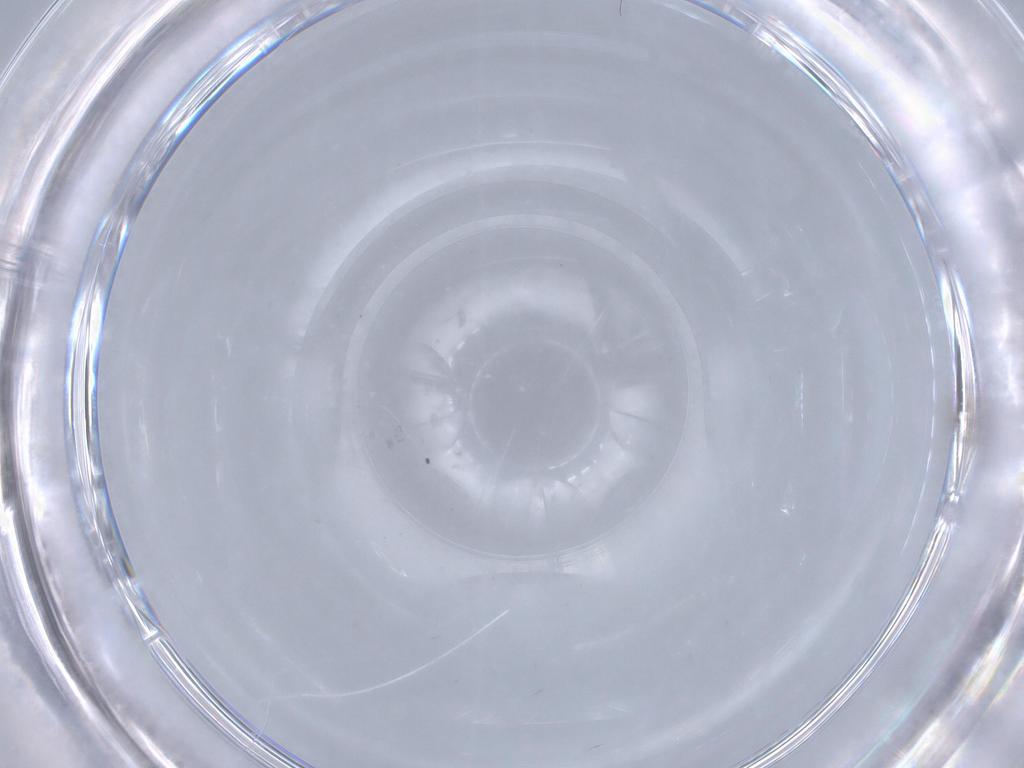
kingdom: Animalia
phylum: Arthropoda
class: Insecta
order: Diptera
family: Cecidomyiidae
